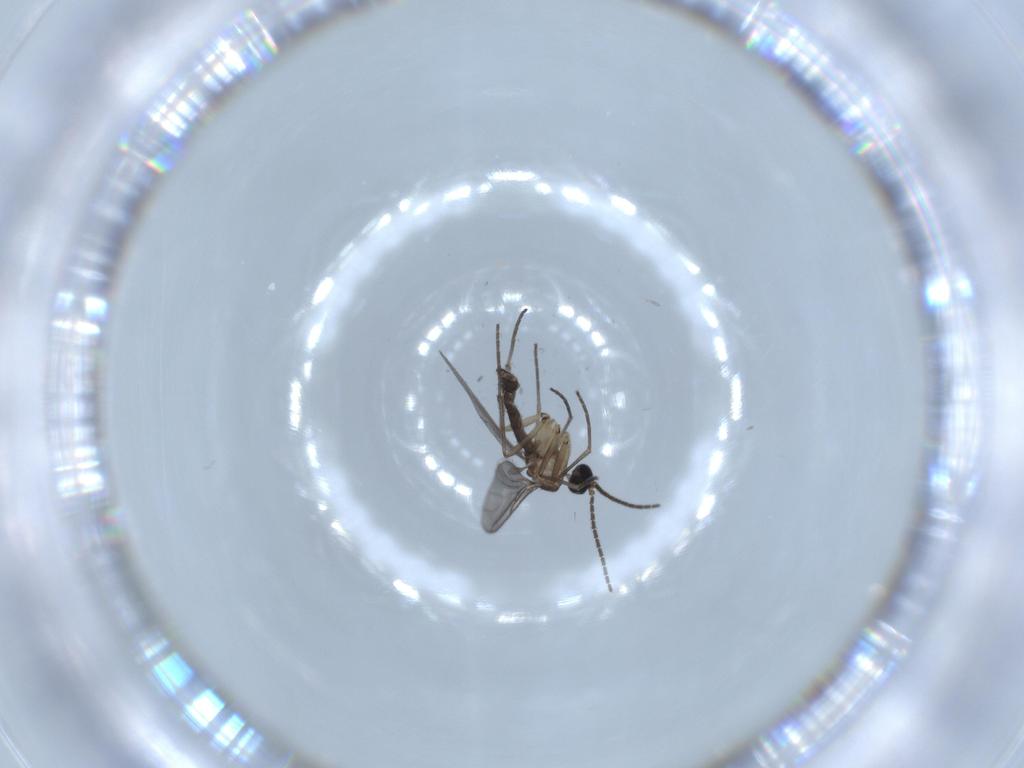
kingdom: Animalia
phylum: Arthropoda
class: Insecta
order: Diptera
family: Sciaridae
